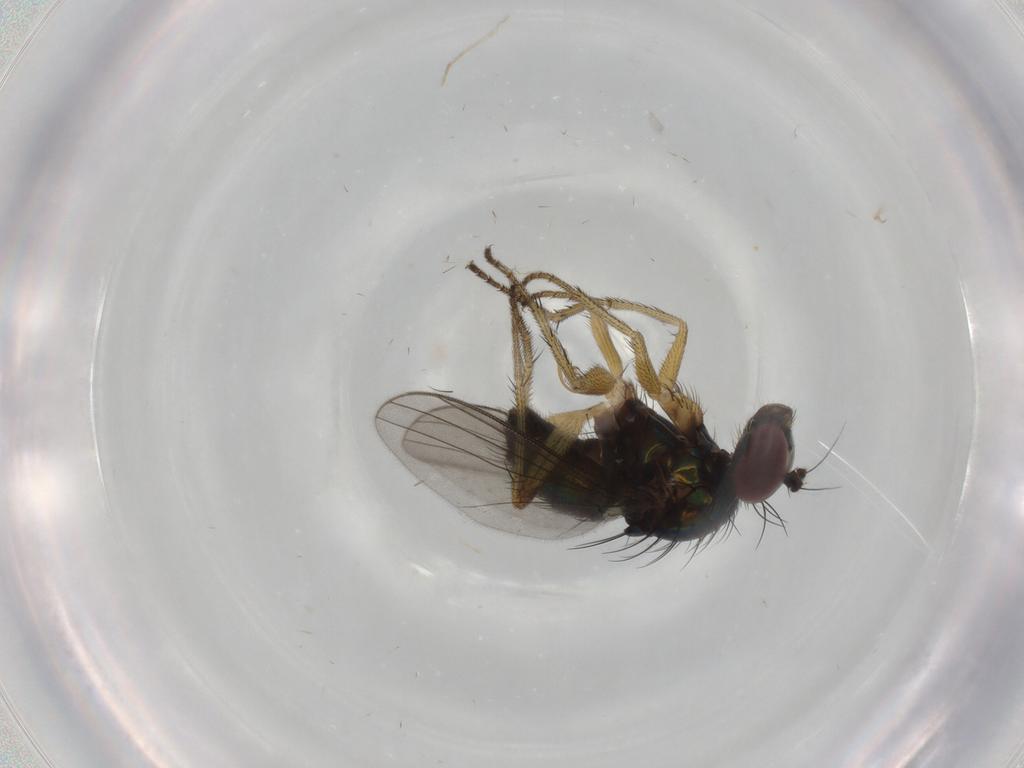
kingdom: Animalia
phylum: Arthropoda
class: Insecta
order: Diptera
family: Dolichopodidae
